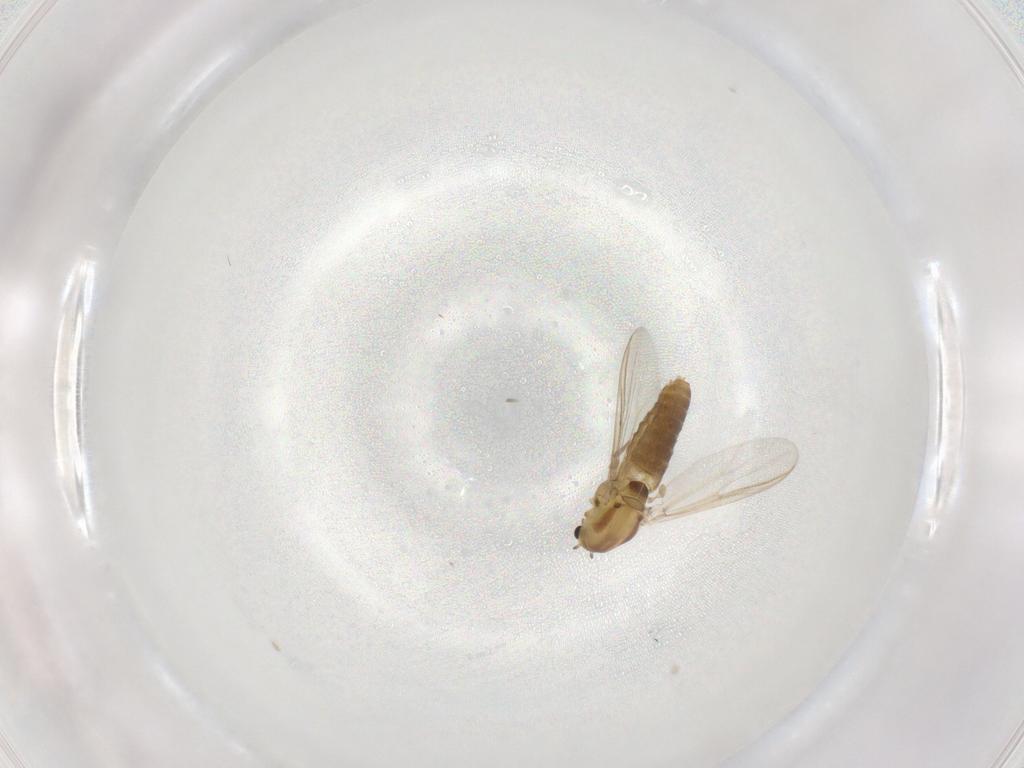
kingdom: Animalia
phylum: Arthropoda
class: Insecta
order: Diptera
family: Chironomidae
